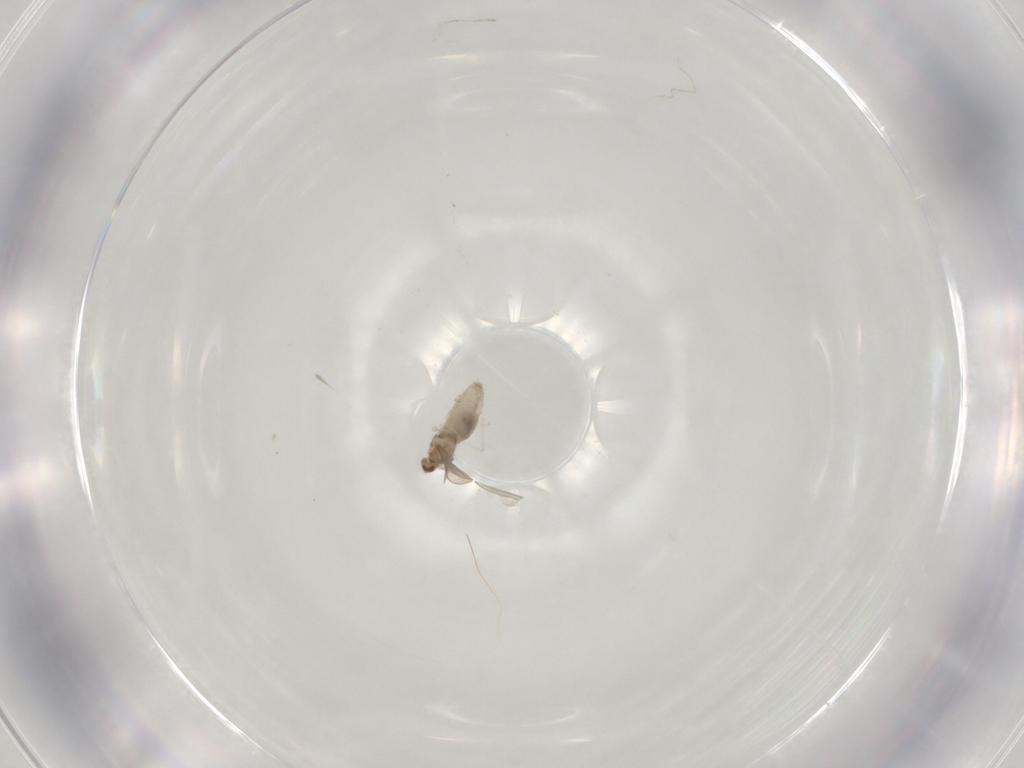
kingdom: Animalia
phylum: Arthropoda
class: Insecta
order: Diptera
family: Cecidomyiidae
